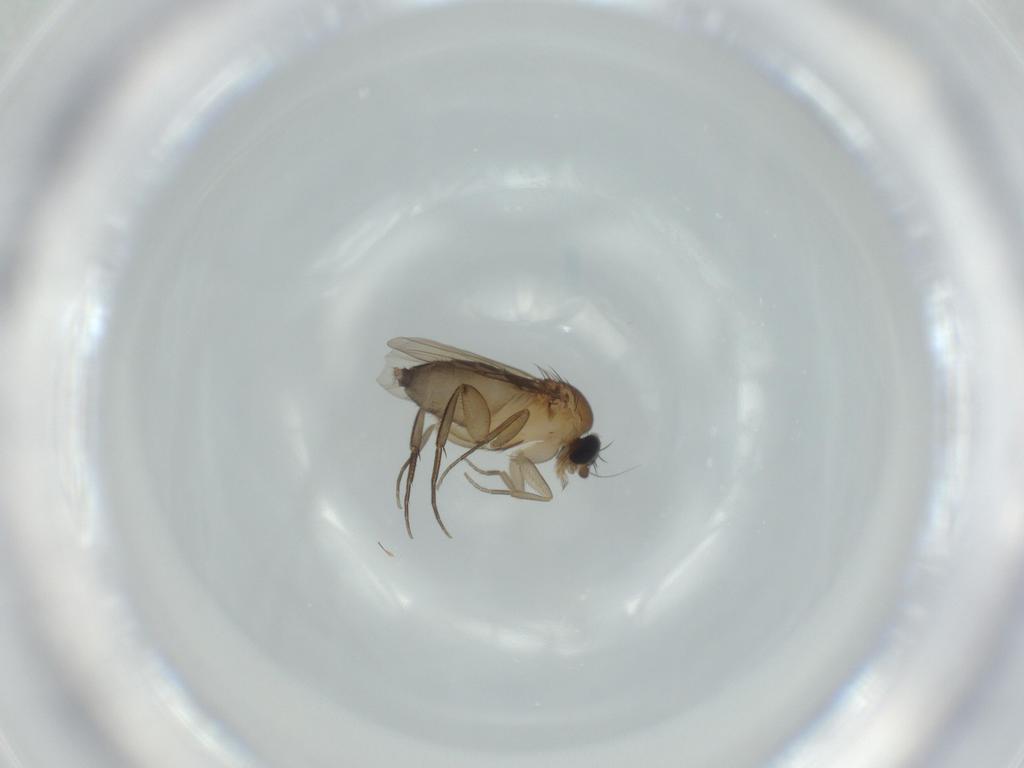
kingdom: Animalia
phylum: Arthropoda
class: Insecta
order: Diptera
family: Phoridae
